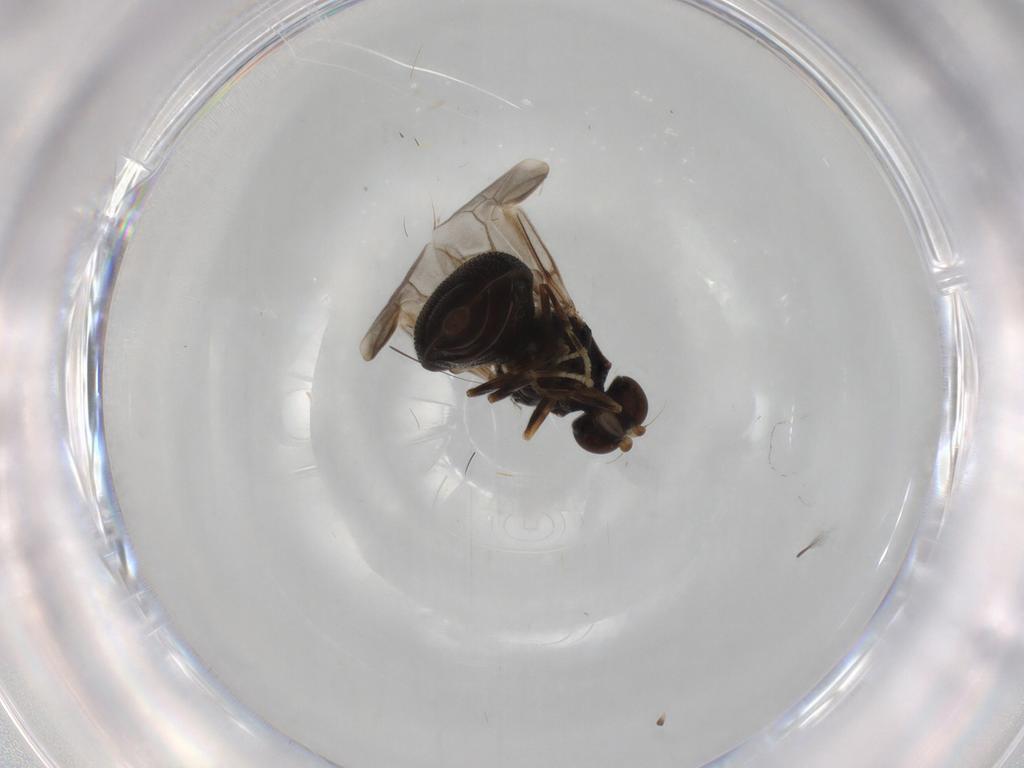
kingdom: Animalia
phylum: Arthropoda
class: Insecta
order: Diptera
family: Stratiomyidae
